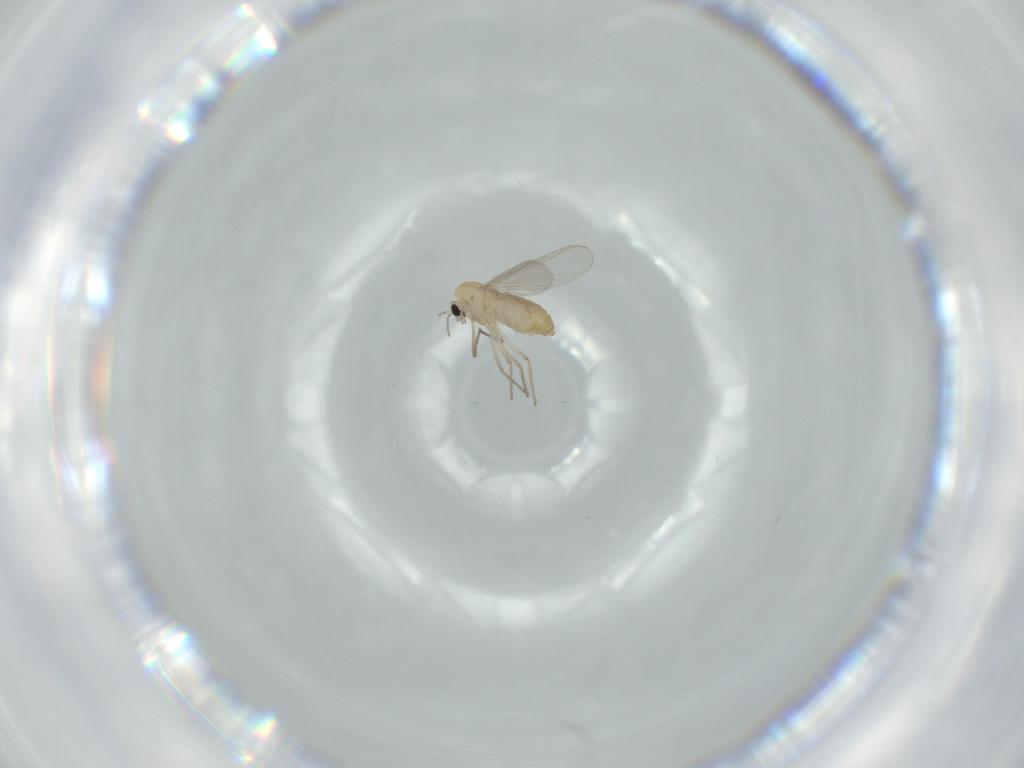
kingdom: Animalia
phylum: Arthropoda
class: Insecta
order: Diptera
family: Chironomidae
